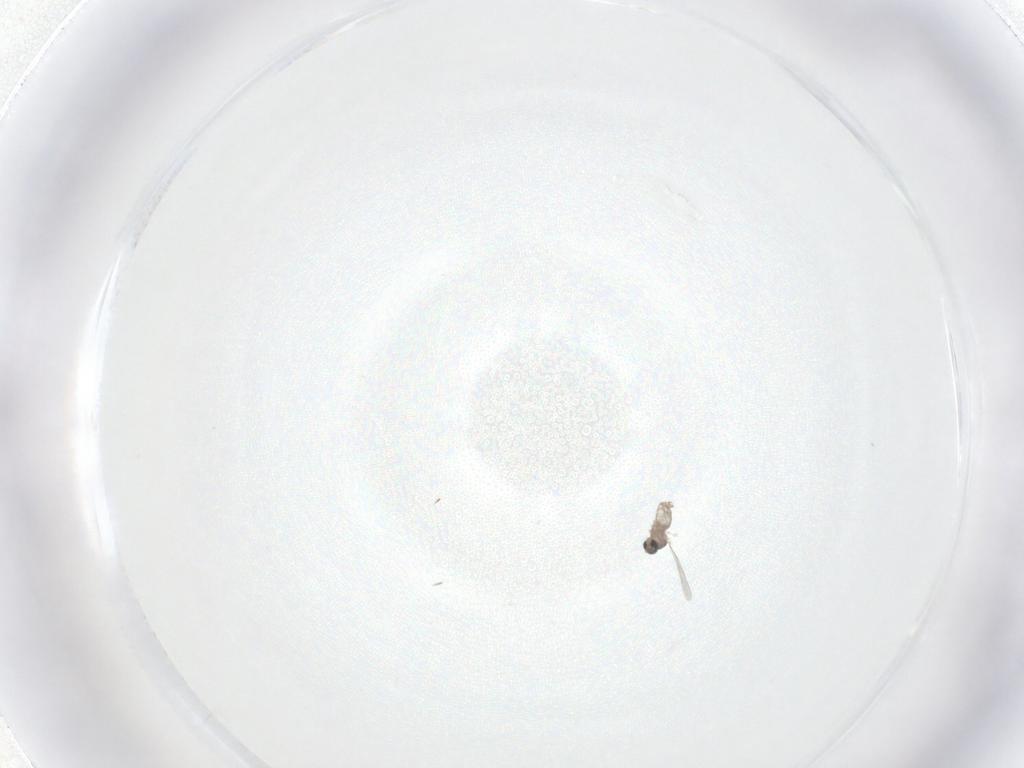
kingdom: Animalia
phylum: Arthropoda
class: Insecta
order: Diptera
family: Cecidomyiidae
